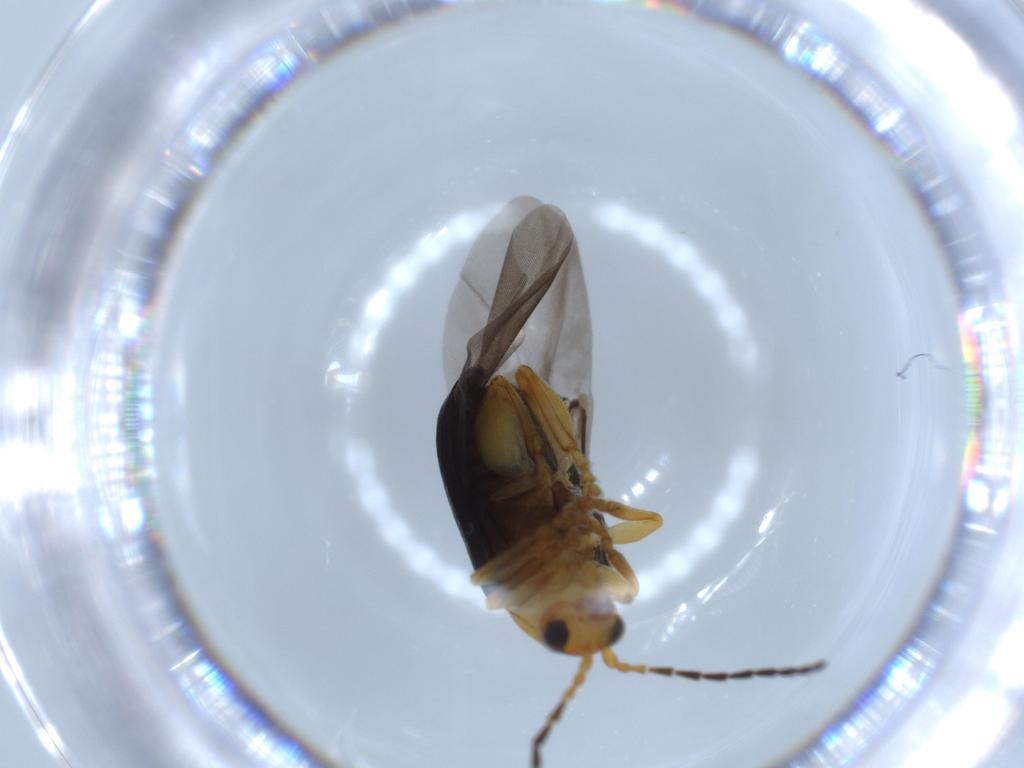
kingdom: Animalia
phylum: Arthropoda
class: Insecta
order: Coleoptera
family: Chrysomelidae
